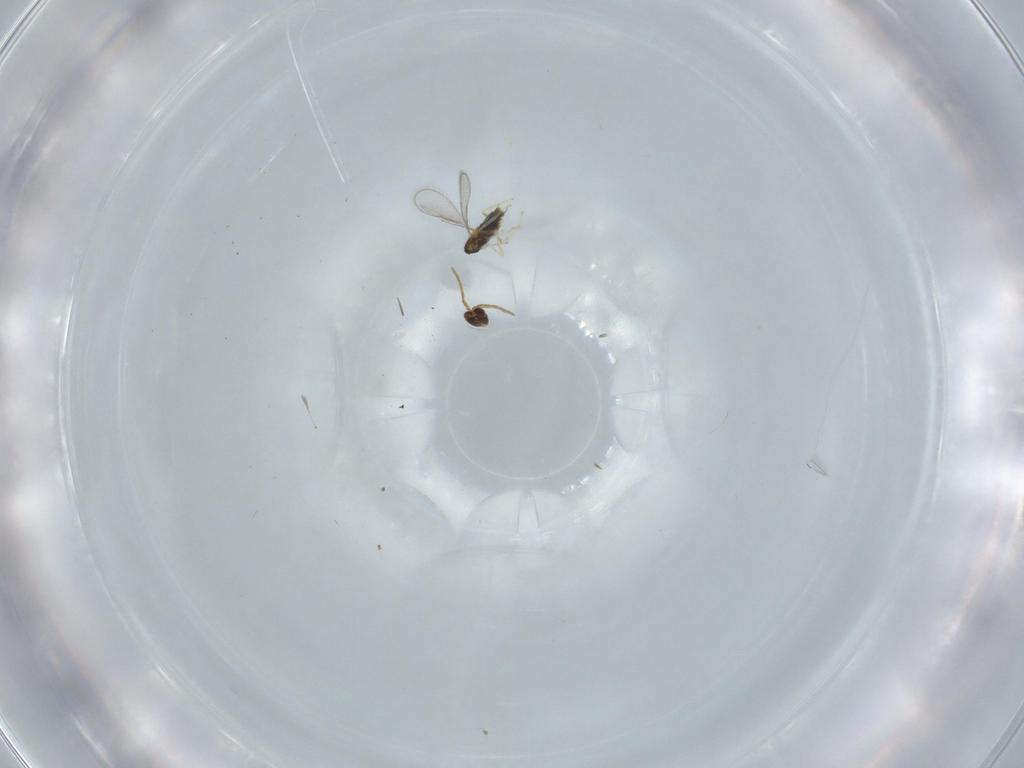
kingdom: Animalia
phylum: Arthropoda
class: Insecta
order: Hymenoptera
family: Aphelinidae
